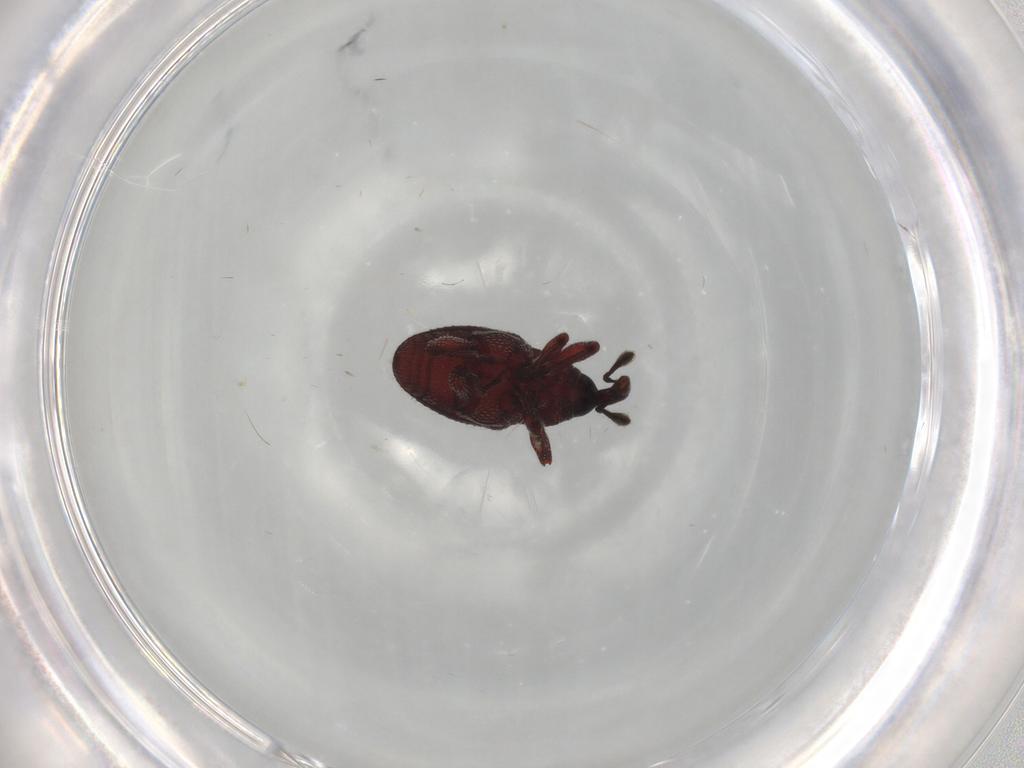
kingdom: Animalia
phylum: Arthropoda
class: Insecta
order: Coleoptera
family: Curculionidae
